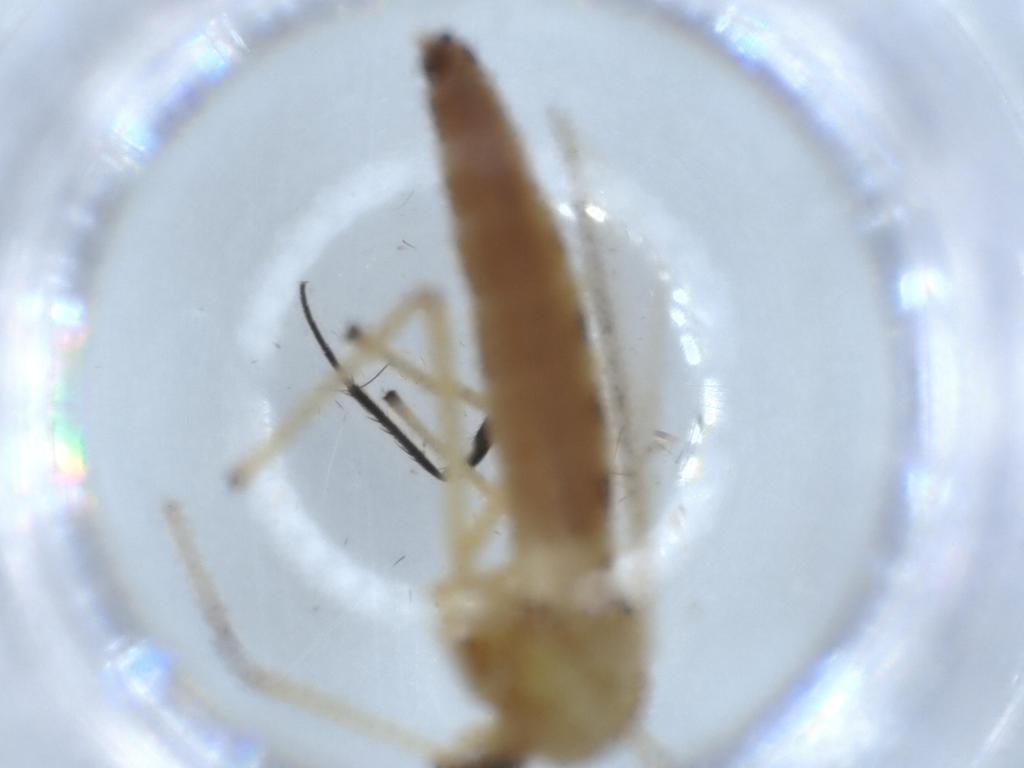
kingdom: Animalia
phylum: Arthropoda
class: Insecta
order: Diptera
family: Chironomidae
